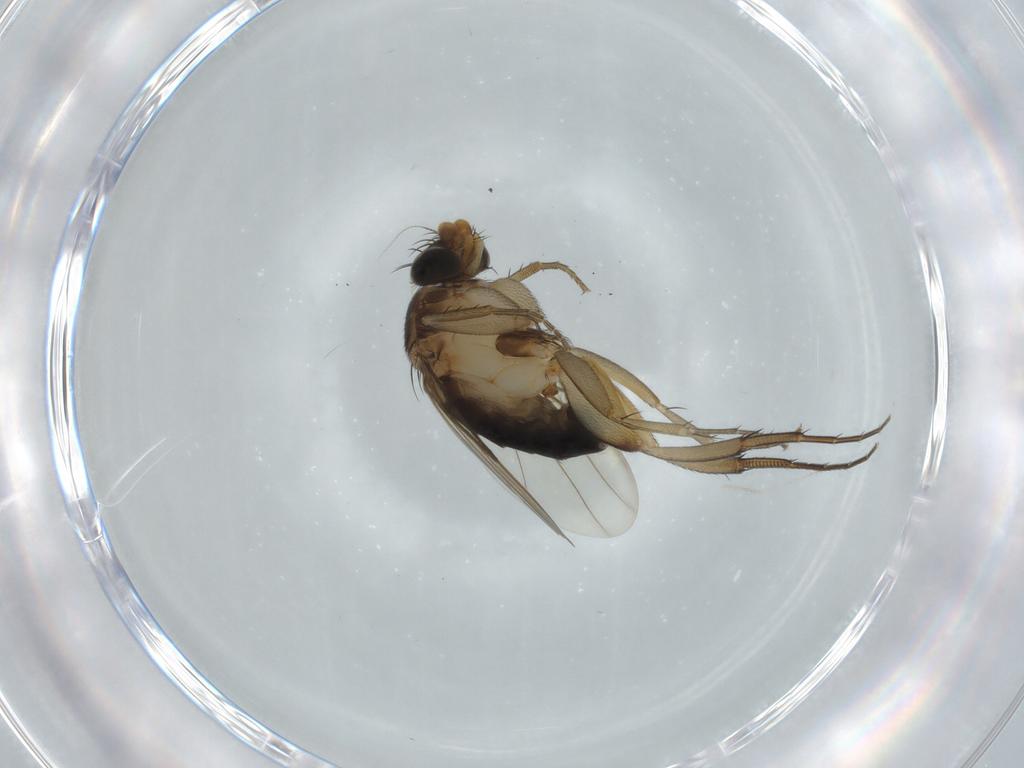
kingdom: Animalia
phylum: Arthropoda
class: Insecta
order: Diptera
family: Phoridae
